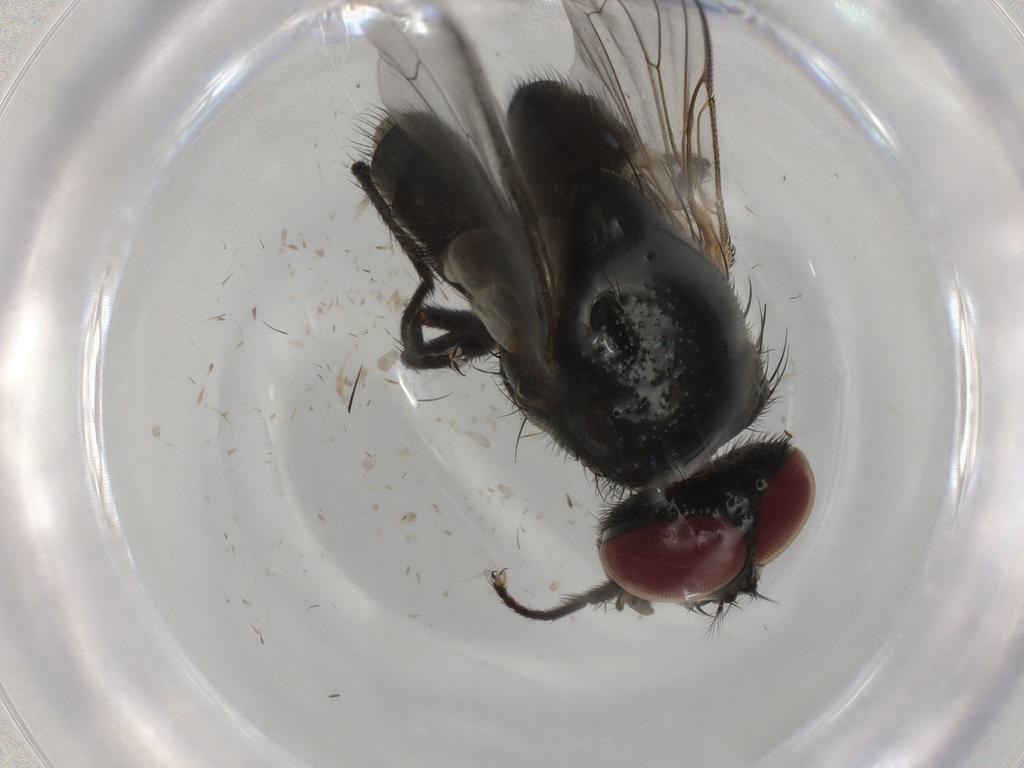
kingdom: Animalia
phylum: Arthropoda
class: Insecta
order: Diptera
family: Muscidae
